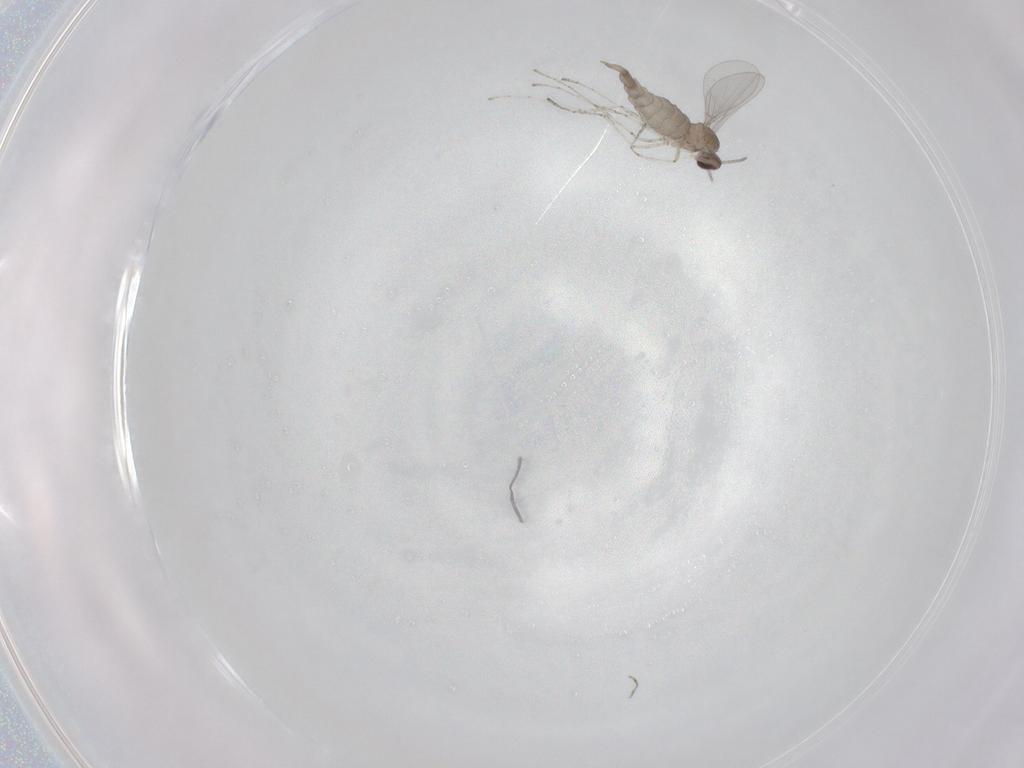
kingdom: Animalia
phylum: Arthropoda
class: Insecta
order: Diptera
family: Cecidomyiidae
